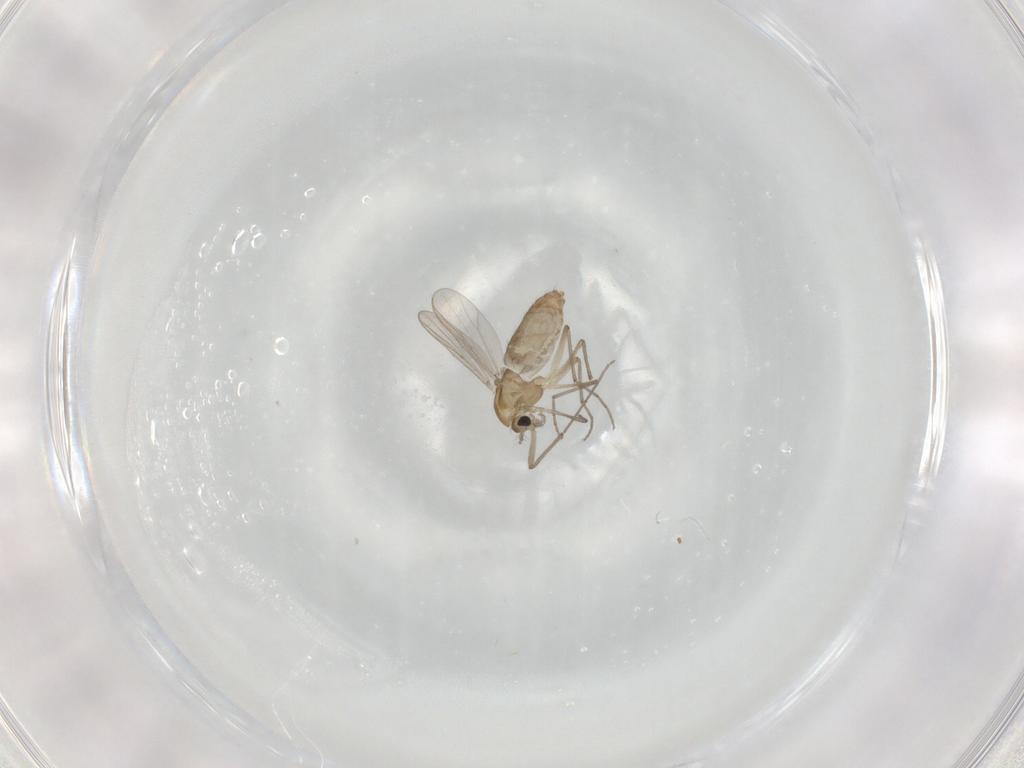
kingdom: Animalia
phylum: Arthropoda
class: Insecta
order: Diptera
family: Chironomidae
